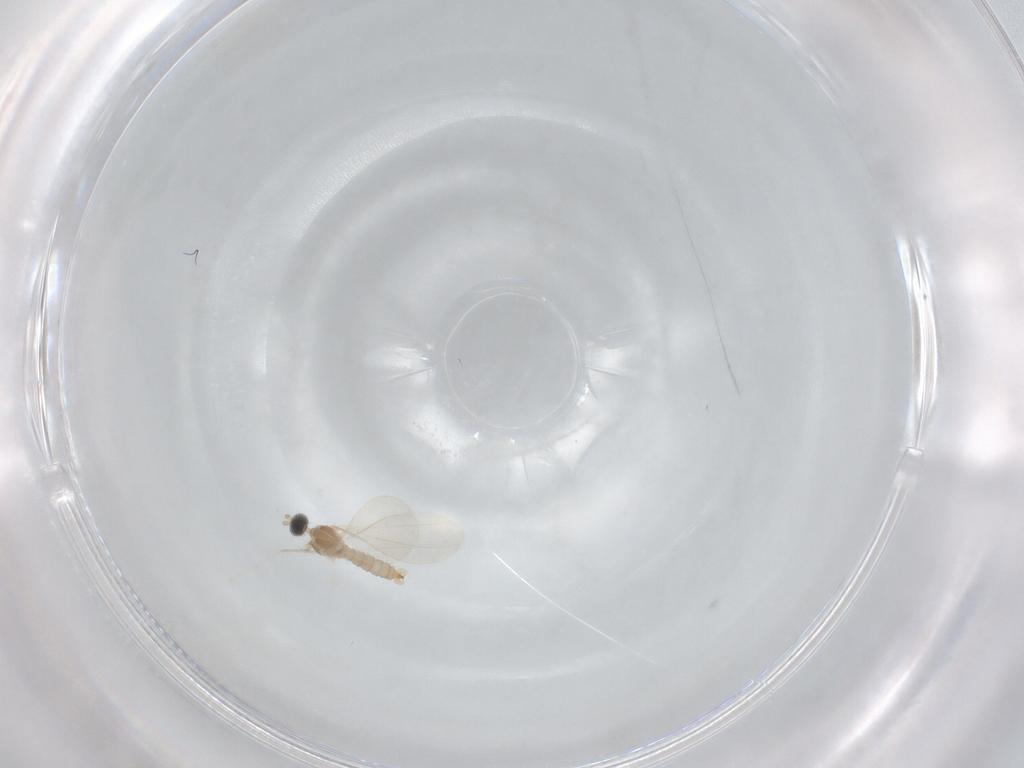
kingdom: Animalia
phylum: Arthropoda
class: Insecta
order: Diptera
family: Cecidomyiidae
